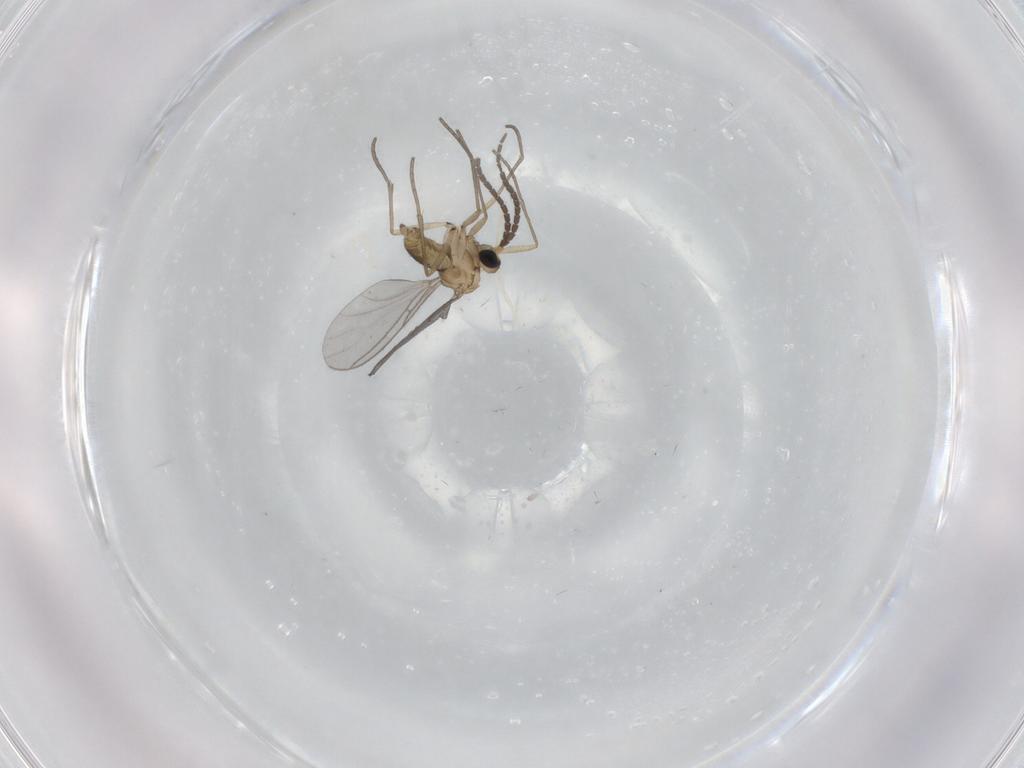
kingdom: Animalia
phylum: Arthropoda
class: Insecta
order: Diptera
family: Sciaridae
